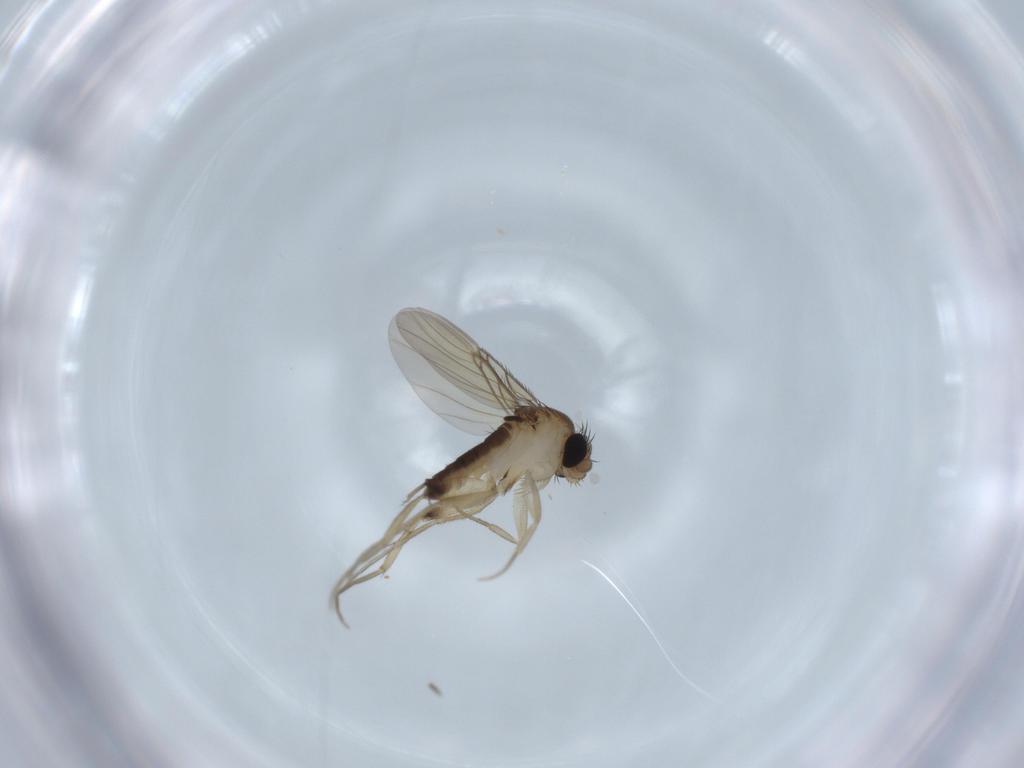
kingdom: Animalia
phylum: Arthropoda
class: Insecta
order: Diptera
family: Phoridae
